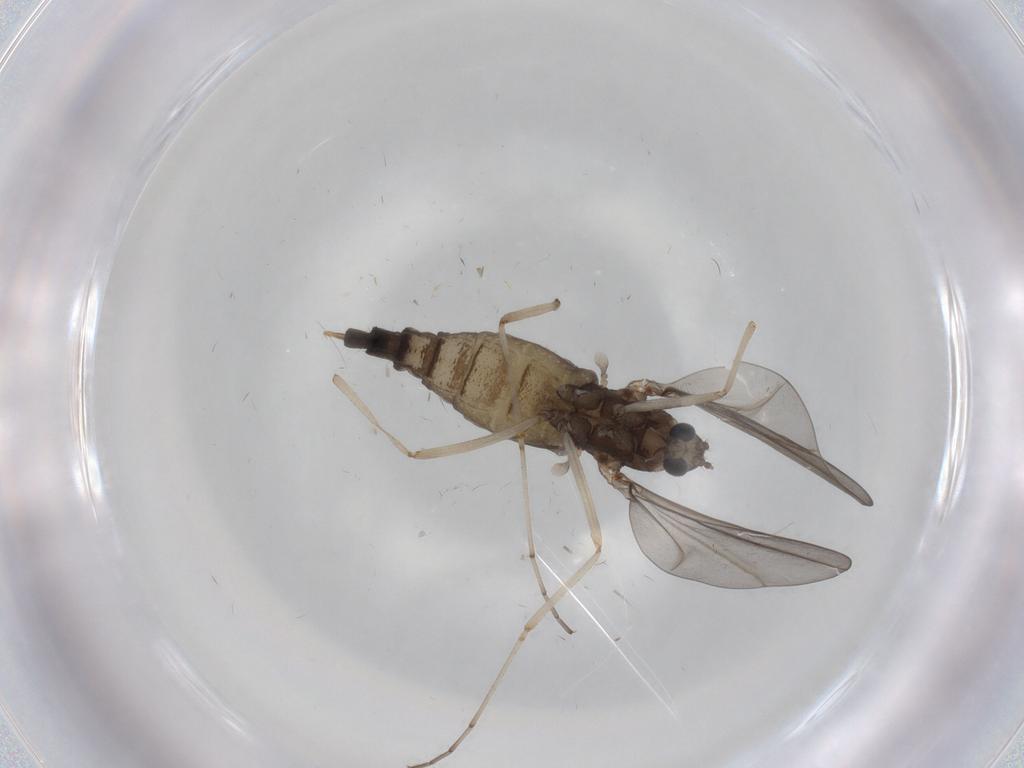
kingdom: Animalia
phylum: Arthropoda
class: Insecta
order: Diptera
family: Cecidomyiidae
